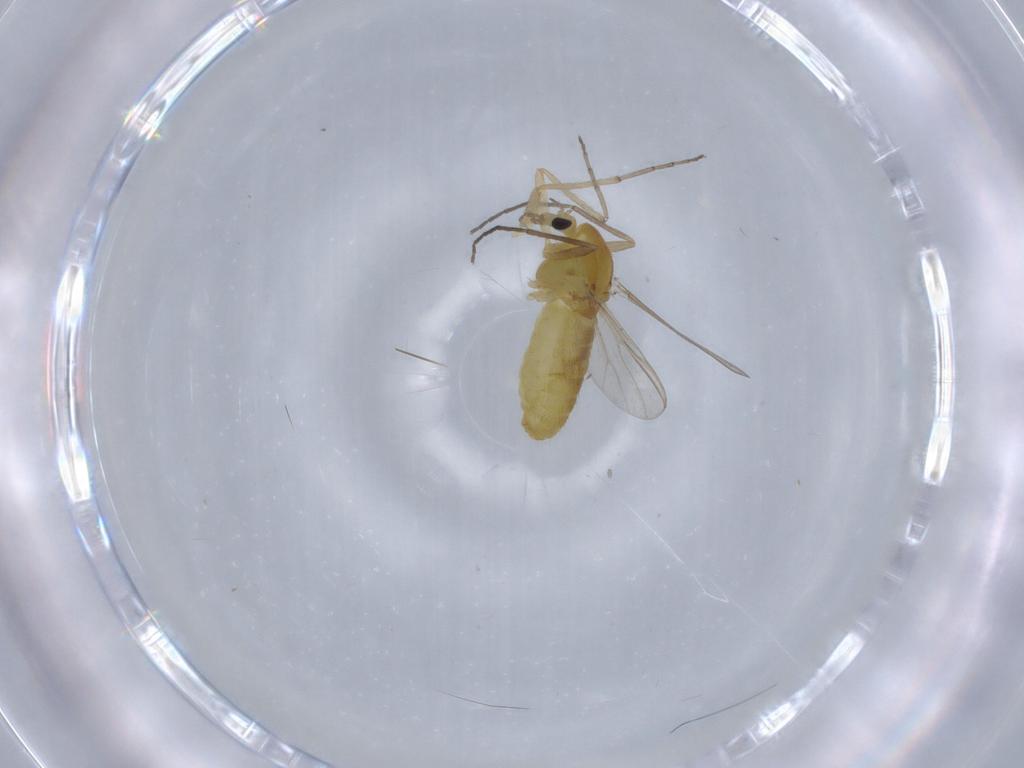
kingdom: Animalia
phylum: Arthropoda
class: Insecta
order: Diptera
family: Chironomidae
